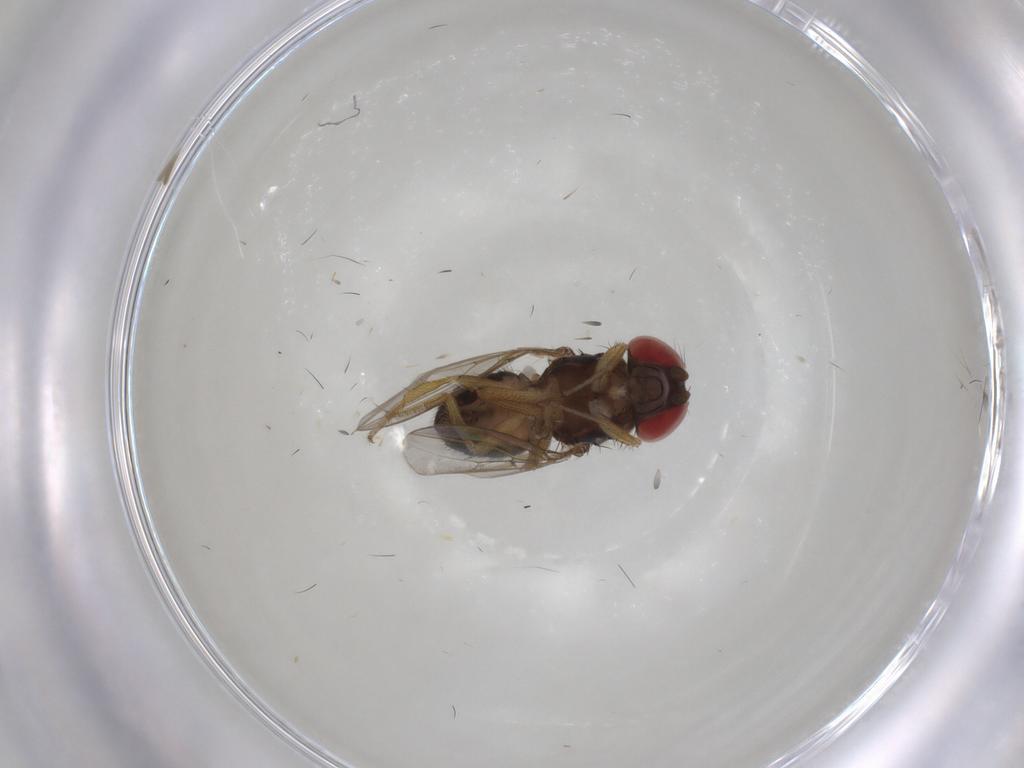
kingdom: Animalia
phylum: Arthropoda
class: Insecta
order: Diptera
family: Drosophilidae
